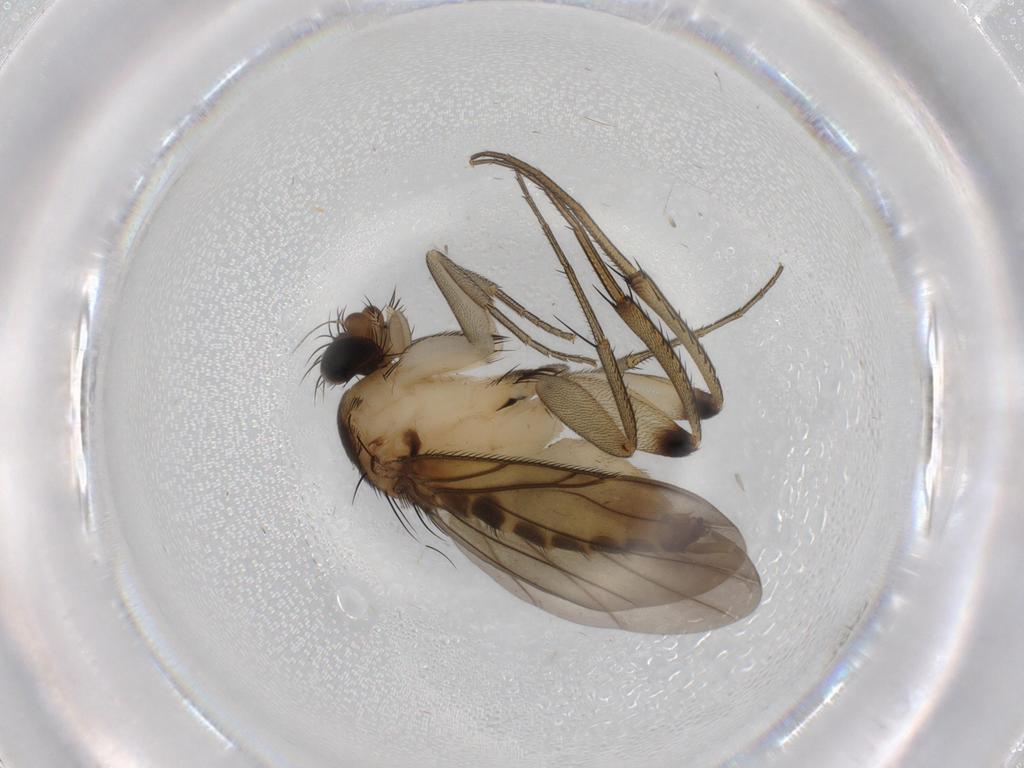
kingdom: Animalia
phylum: Arthropoda
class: Insecta
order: Diptera
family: Phoridae
